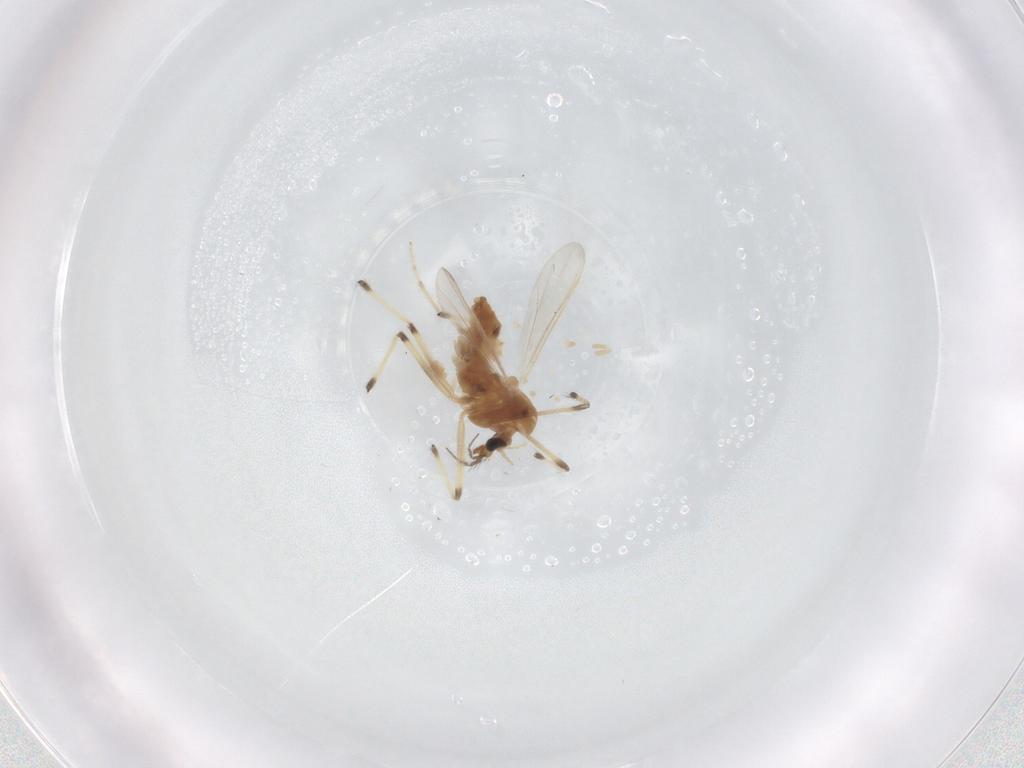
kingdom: Animalia
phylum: Arthropoda
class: Insecta
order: Diptera
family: Chironomidae
